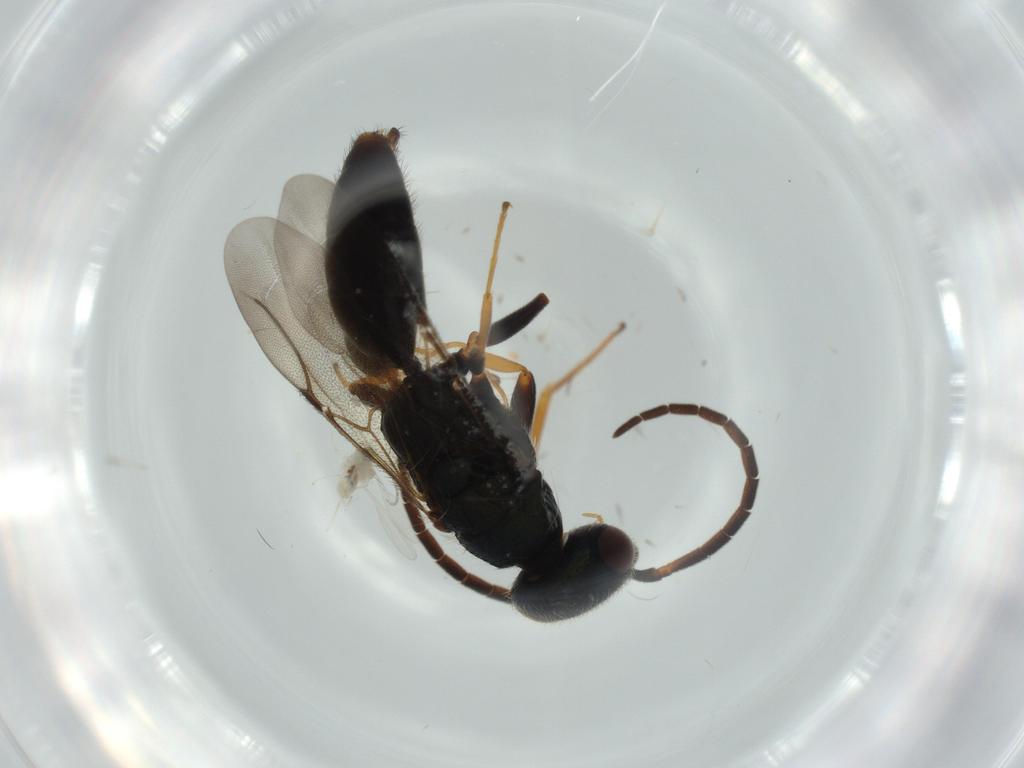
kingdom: Animalia
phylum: Arthropoda
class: Insecta
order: Hymenoptera
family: Bethylidae
